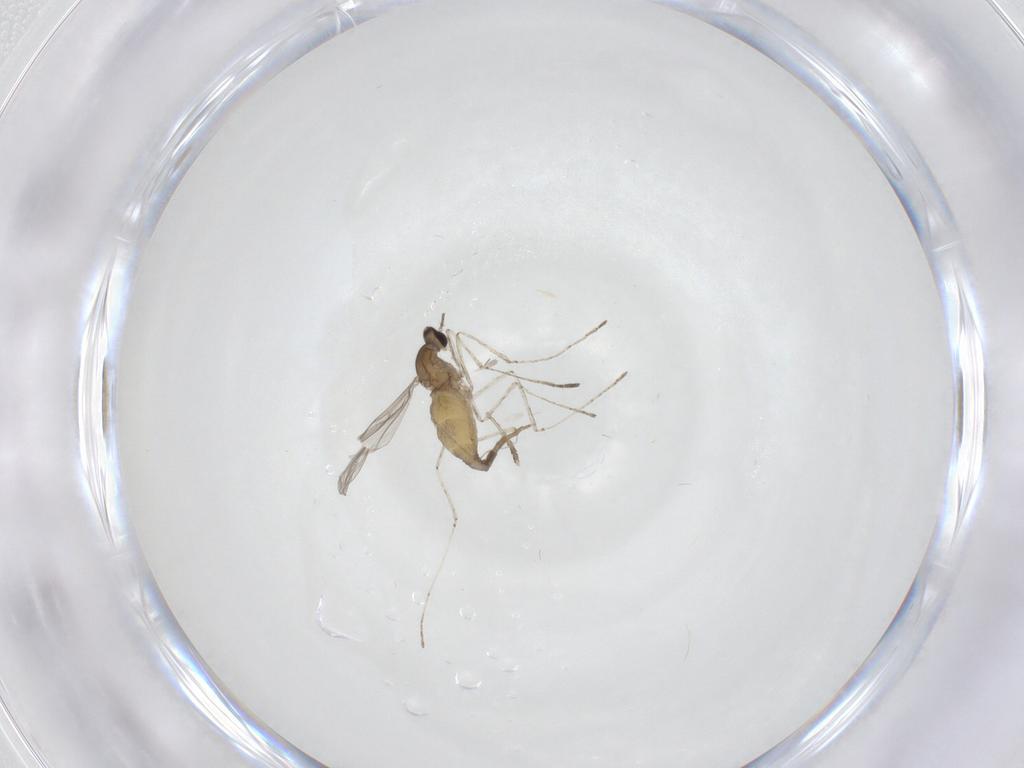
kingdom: Animalia
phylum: Arthropoda
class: Insecta
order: Diptera
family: Cecidomyiidae
